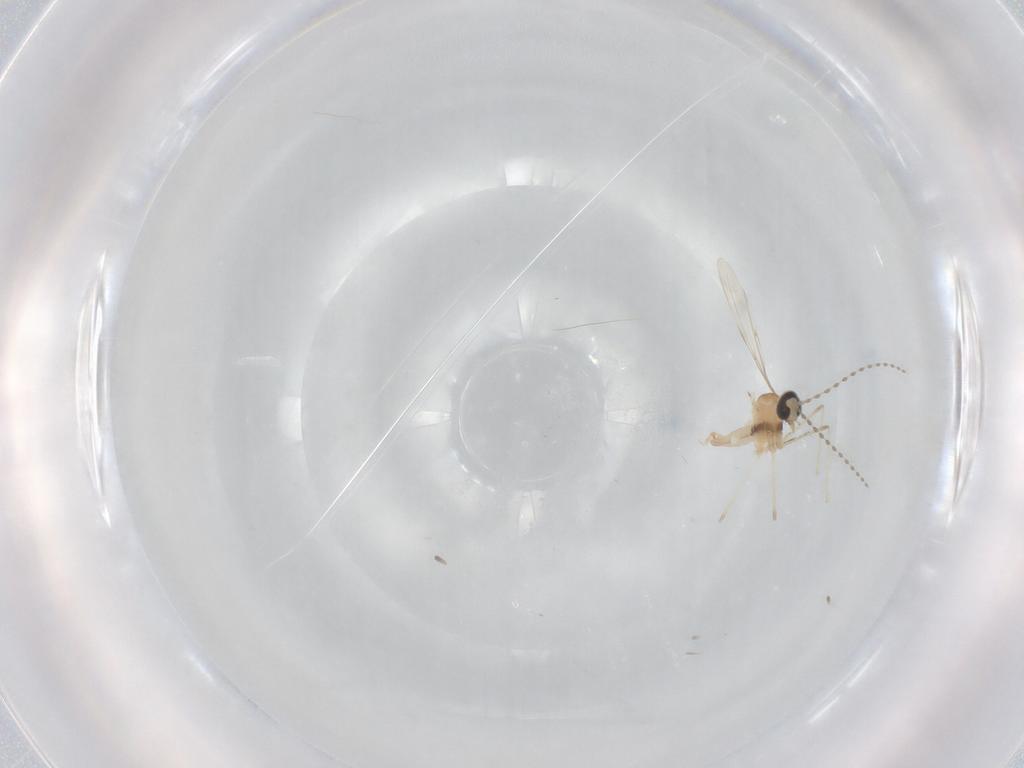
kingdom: Animalia
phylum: Arthropoda
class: Insecta
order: Diptera
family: Cecidomyiidae
